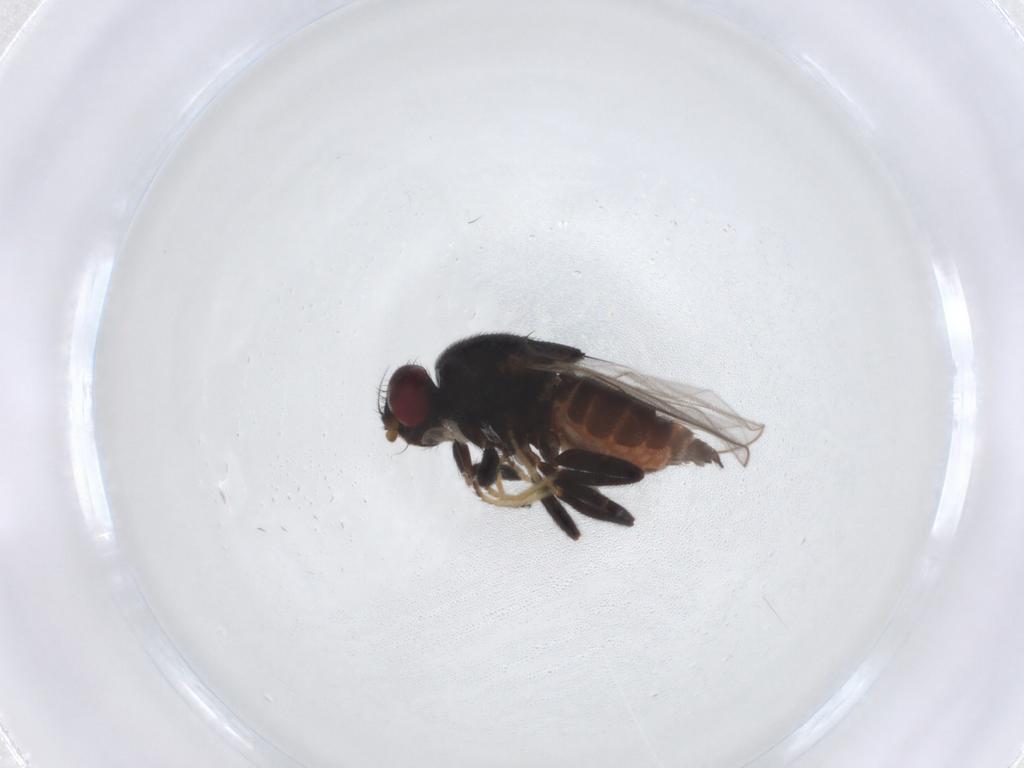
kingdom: Animalia
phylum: Arthropoda
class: Insecta
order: Diptera
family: Chloropidae
